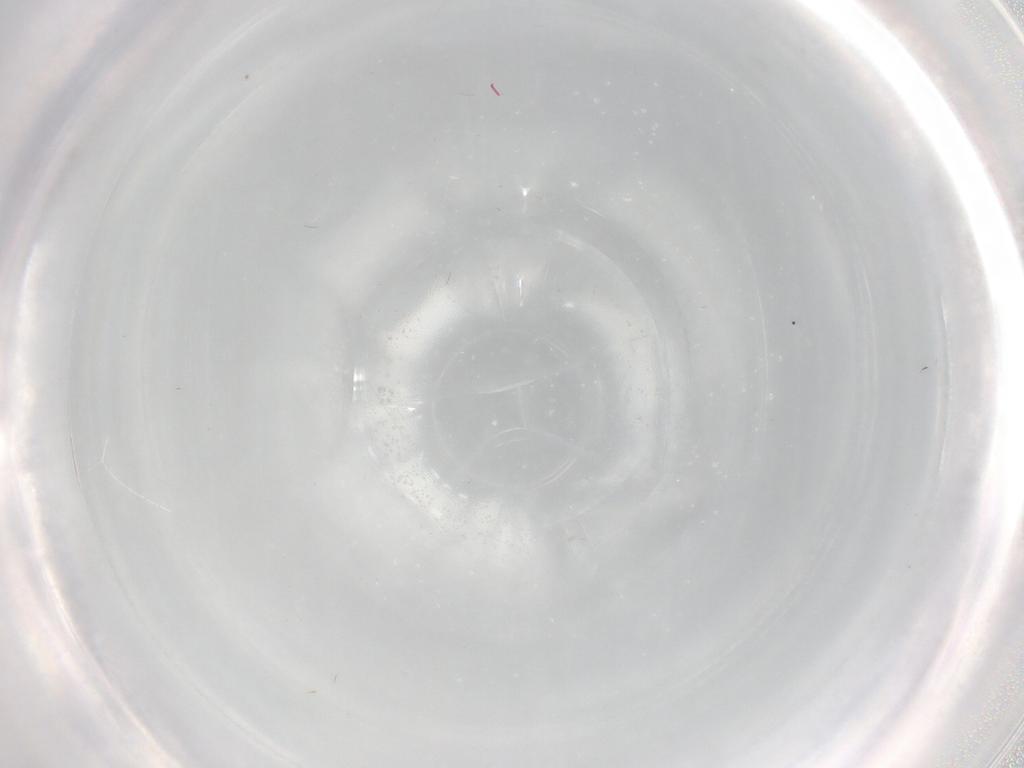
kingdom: Animalia
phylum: Arthropoda
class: Insecta
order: Diptera
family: Cecidomyiidae
